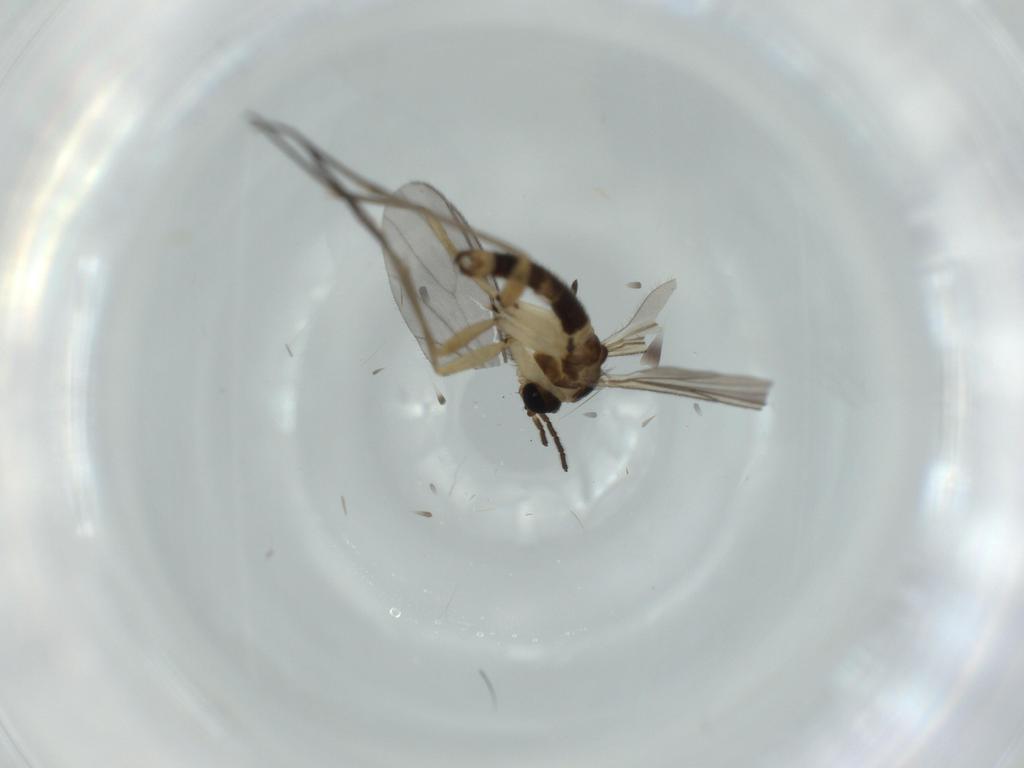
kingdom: Animalia
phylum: Arthropoda
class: Insecta
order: Diptera
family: Sciaridae
